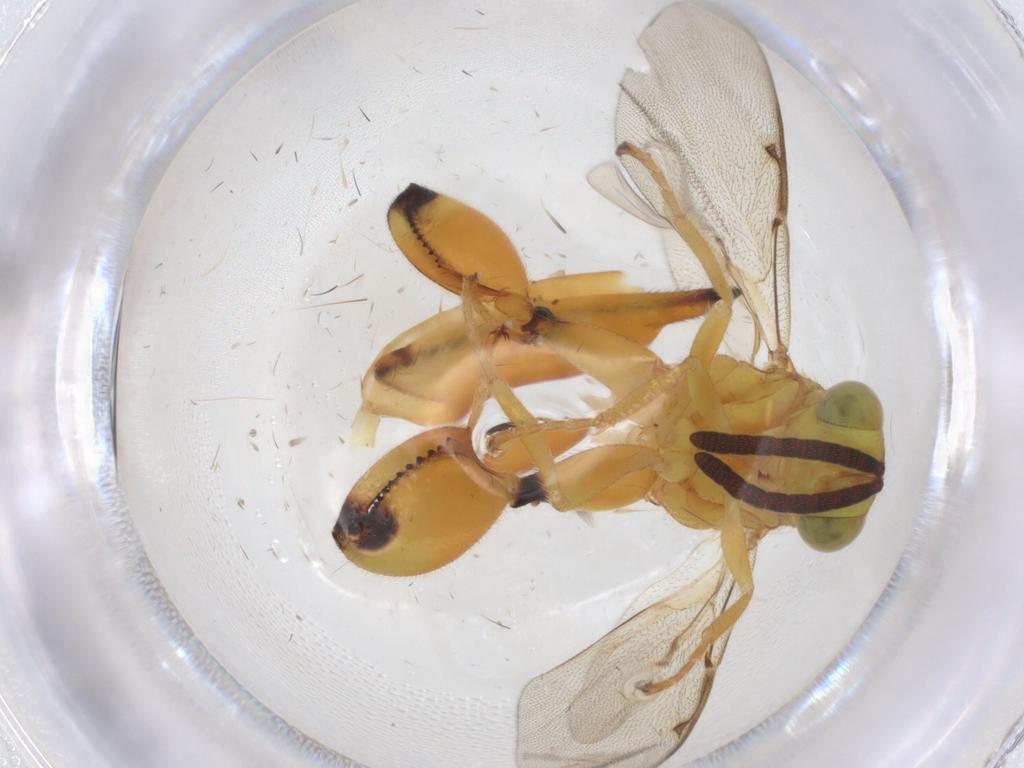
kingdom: Animalia
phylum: Arthropoda
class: Insecta
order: Hymenoptera
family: Chalcididae
